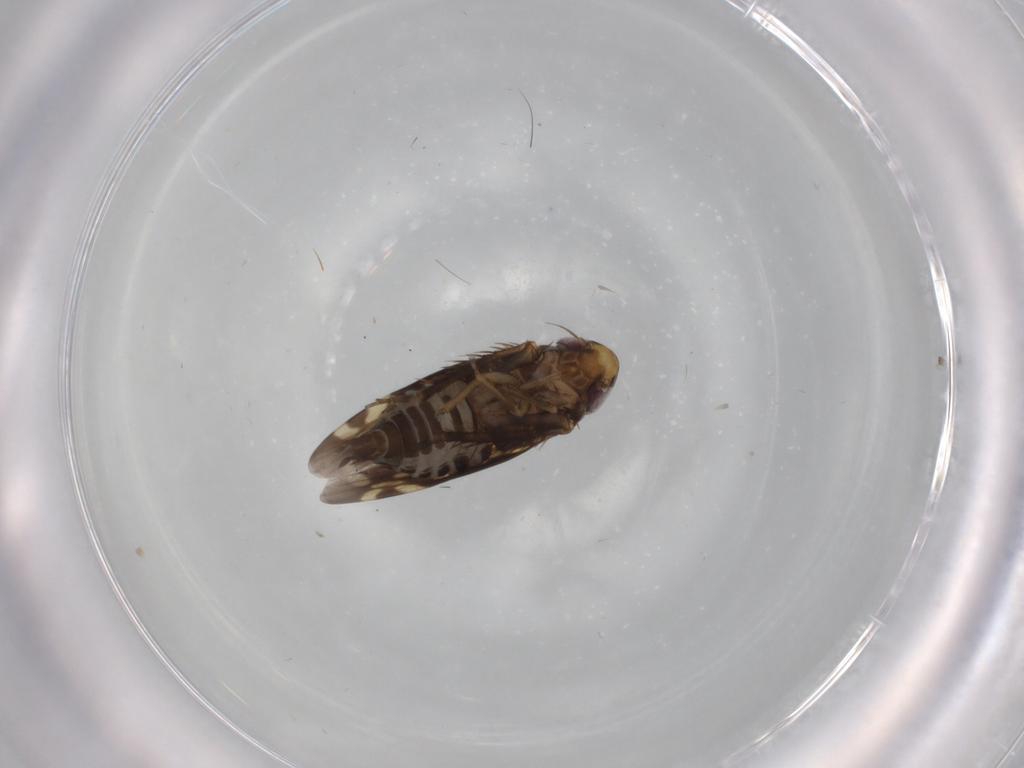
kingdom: Animalia
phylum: Arthropoda
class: Insecta
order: Hemiptera
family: Cicadellidae
